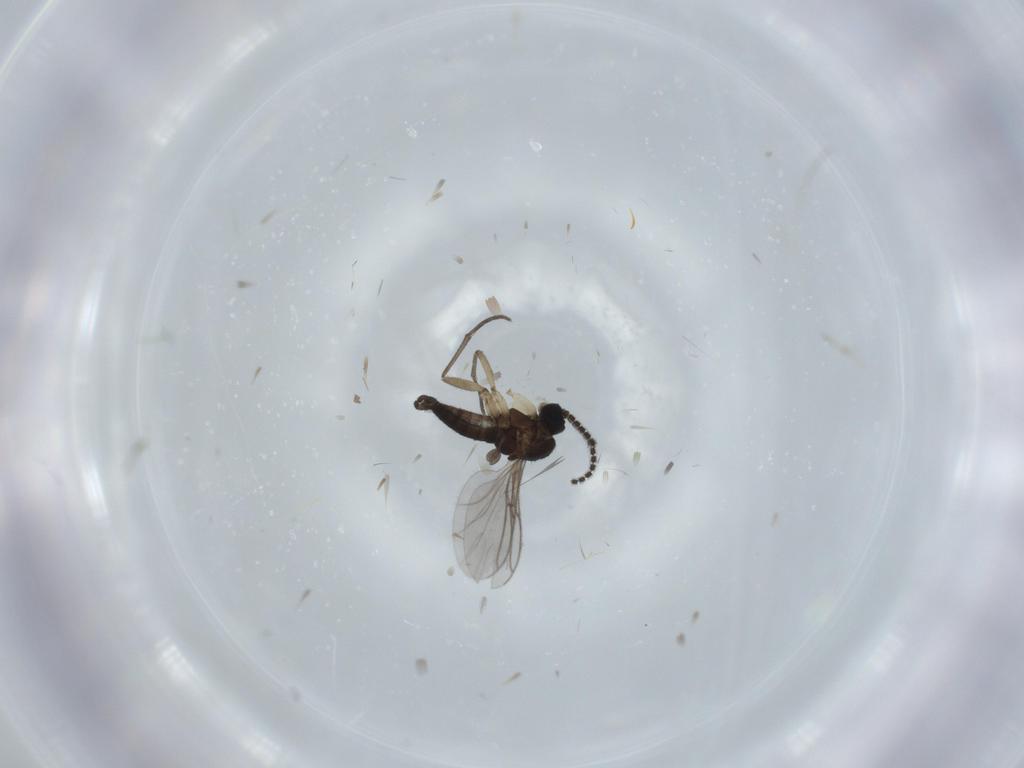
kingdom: Animalia
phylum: Arthropoda
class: Insecta
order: Diptera
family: Sciaridae
